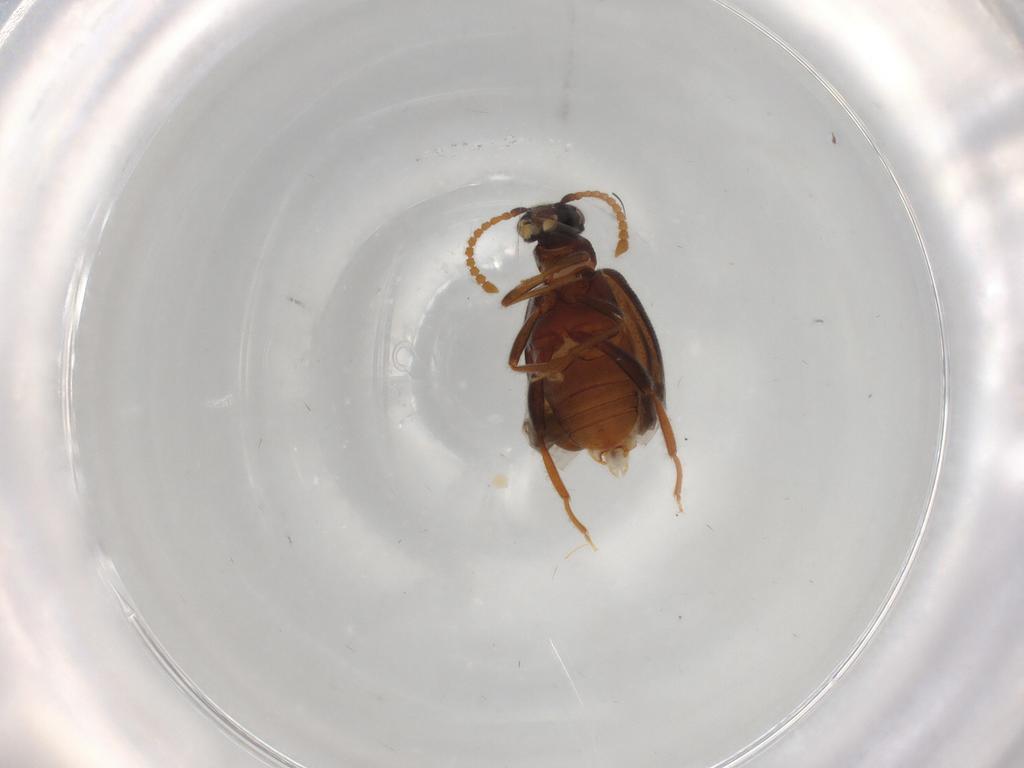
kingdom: Animalia
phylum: Arthropoda
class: Insecta
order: Coleoptera
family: Aderidae
